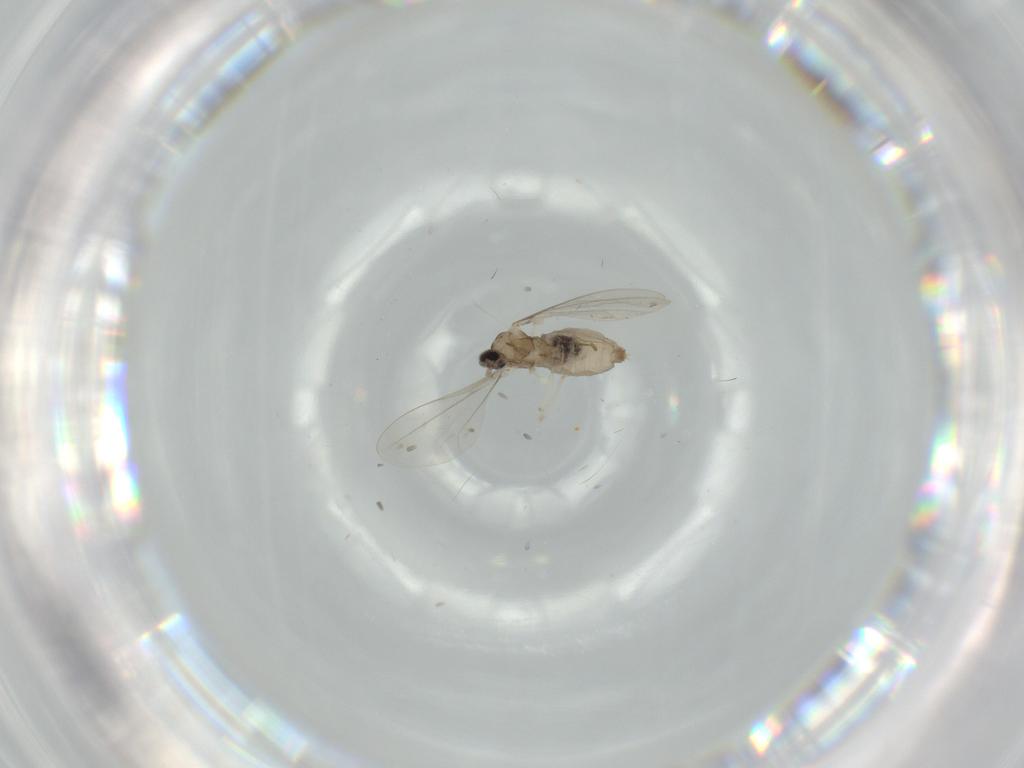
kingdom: Animalia
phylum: Arthropoda
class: Insecta
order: Diptera
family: Cecidomyiidae
